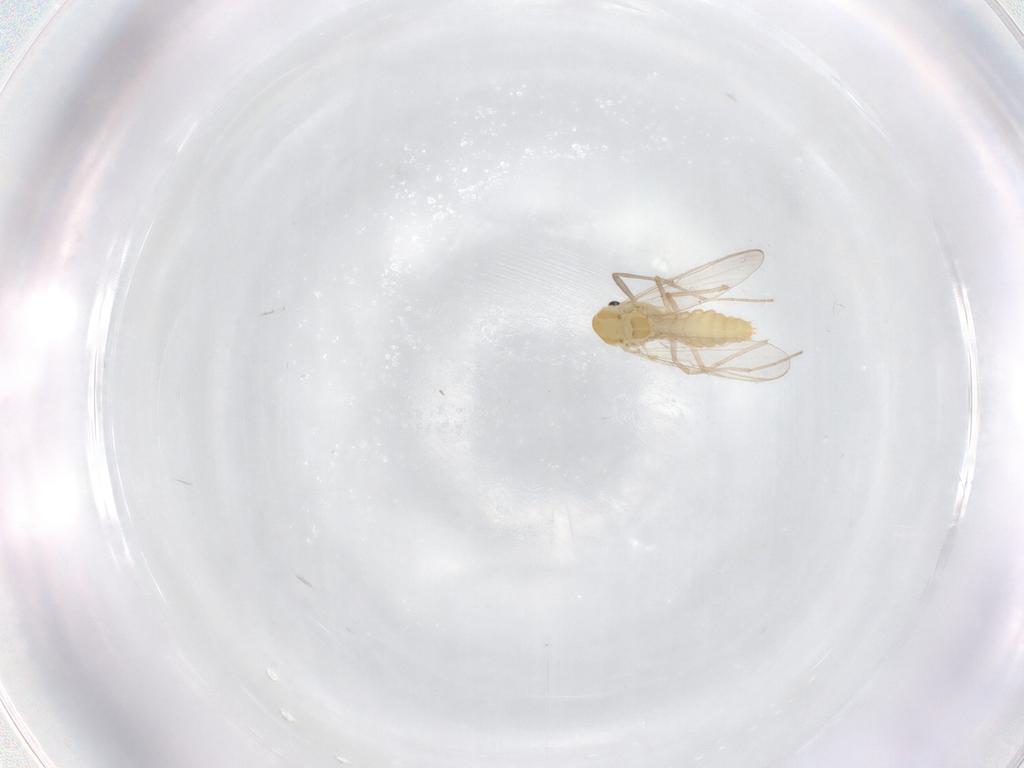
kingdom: Animalia
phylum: Arthropoda
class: Insecta
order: Diptera
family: Chironomidae
